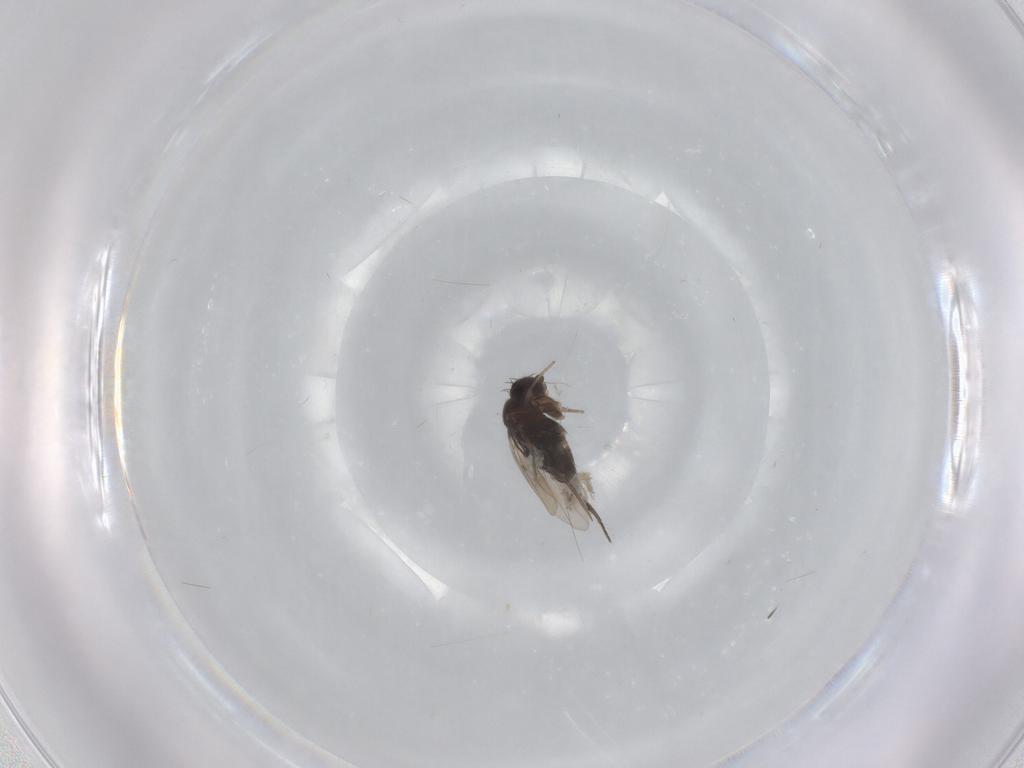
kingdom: Animalia
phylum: Arthropoda
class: Insecta
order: Diptera
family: Phoridae
